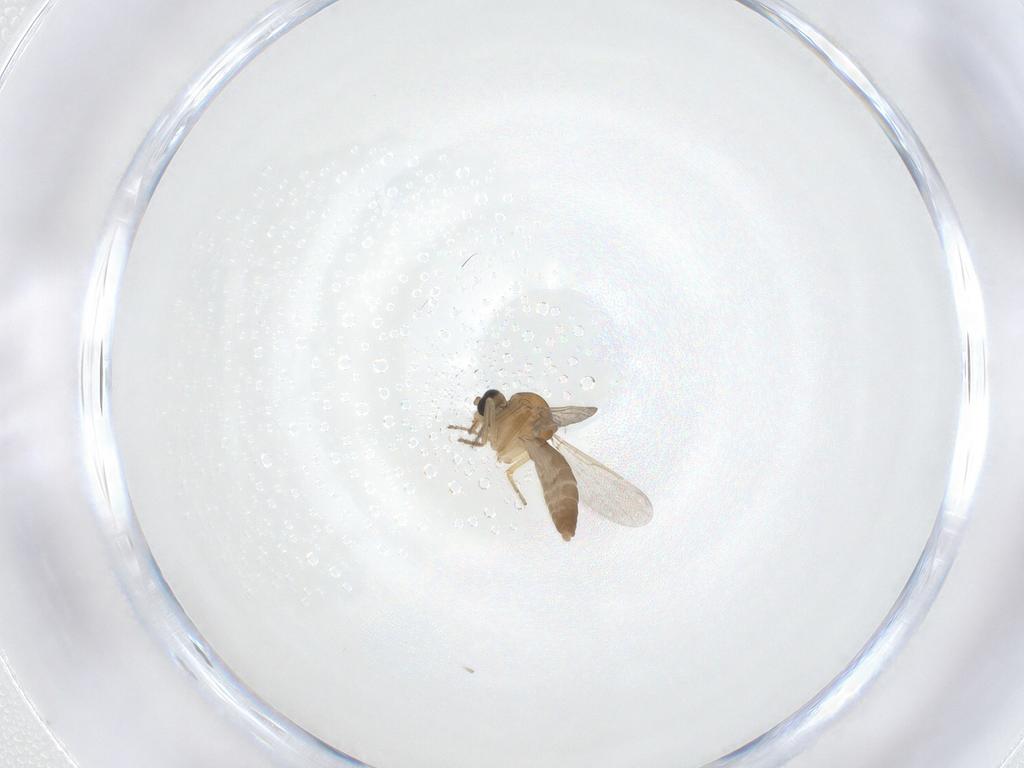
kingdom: Animalia
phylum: Arthropoda
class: Insecta
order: Diptera
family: Ceratopogonidae
